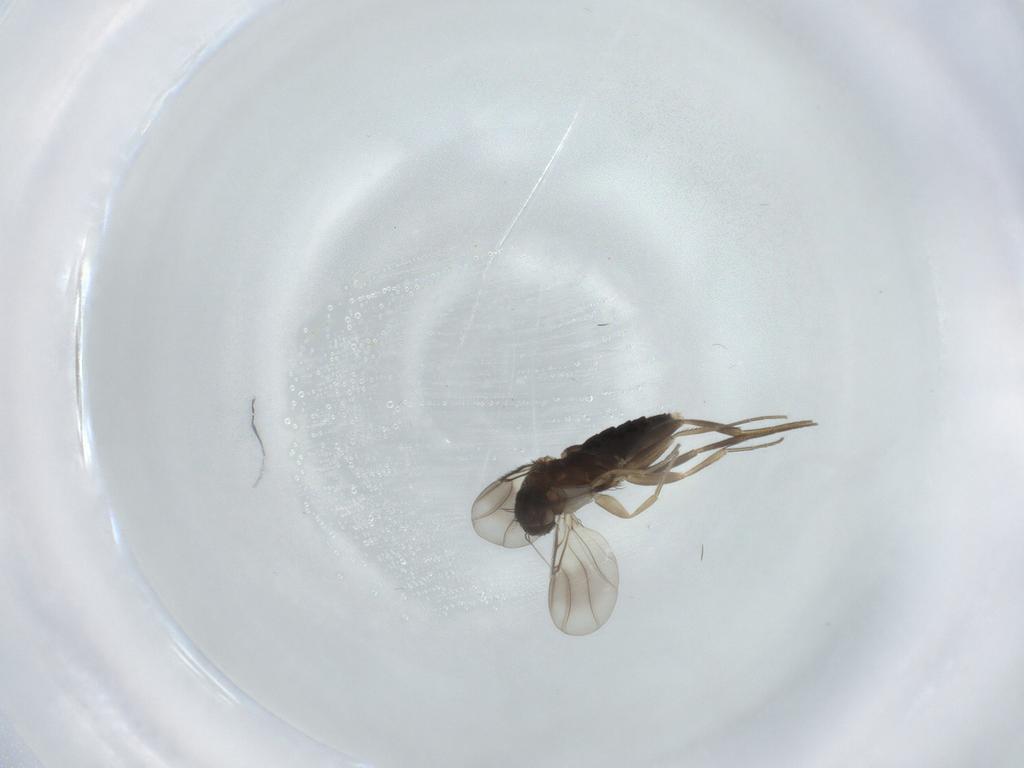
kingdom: Animalia
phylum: Arthropoda
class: Insecta
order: Diptera
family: Phoridae
